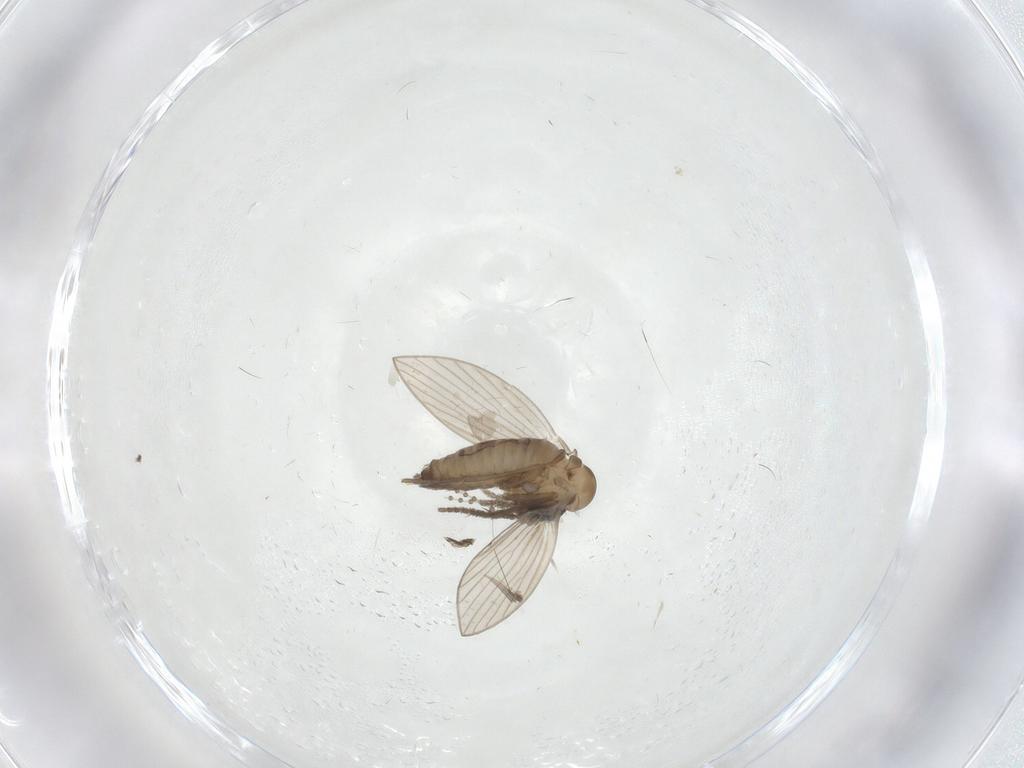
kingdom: Animalia
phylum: Arthropoda
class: Insecta
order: Diptera
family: Psychodidae
